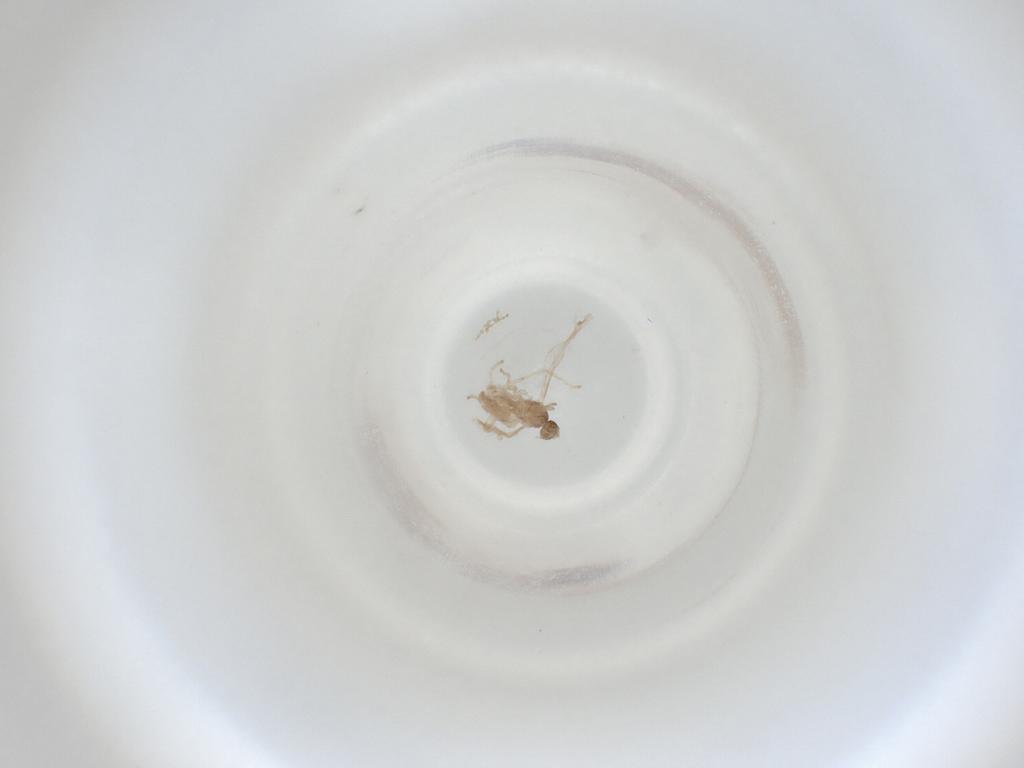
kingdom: Animalia
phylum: Arthropoda
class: Insecta
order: Diptera
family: Cecidomyiidae
